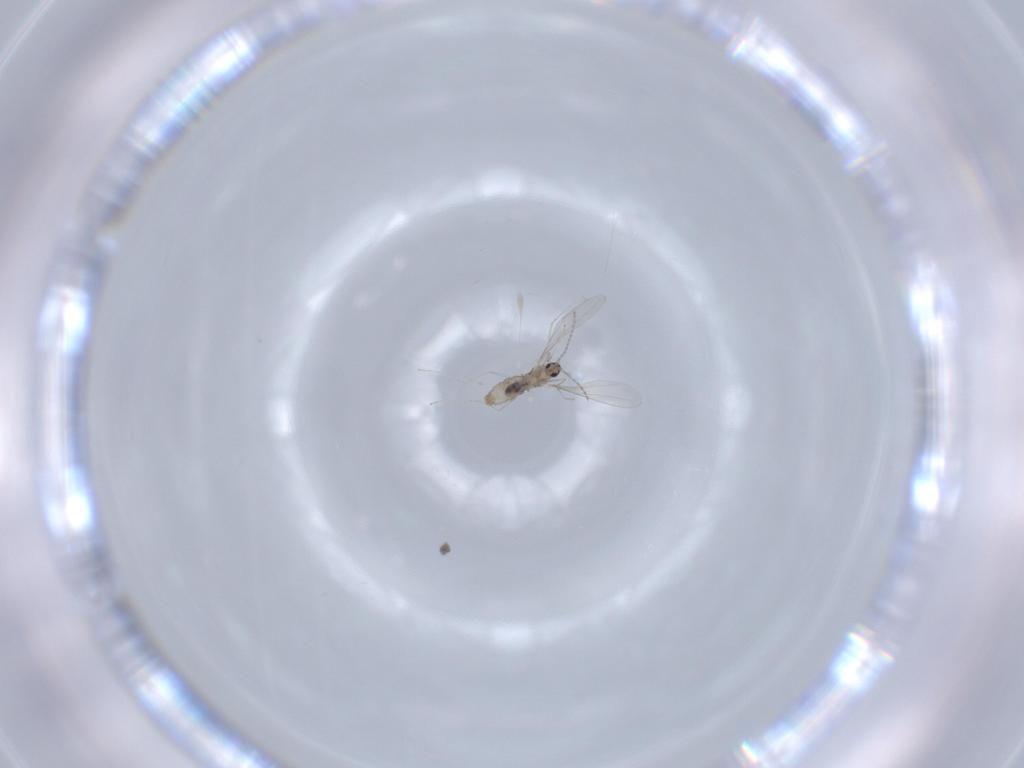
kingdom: Animalia
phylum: Arthropoda
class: Insecta
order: Diptera
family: Cecidomyiidae
